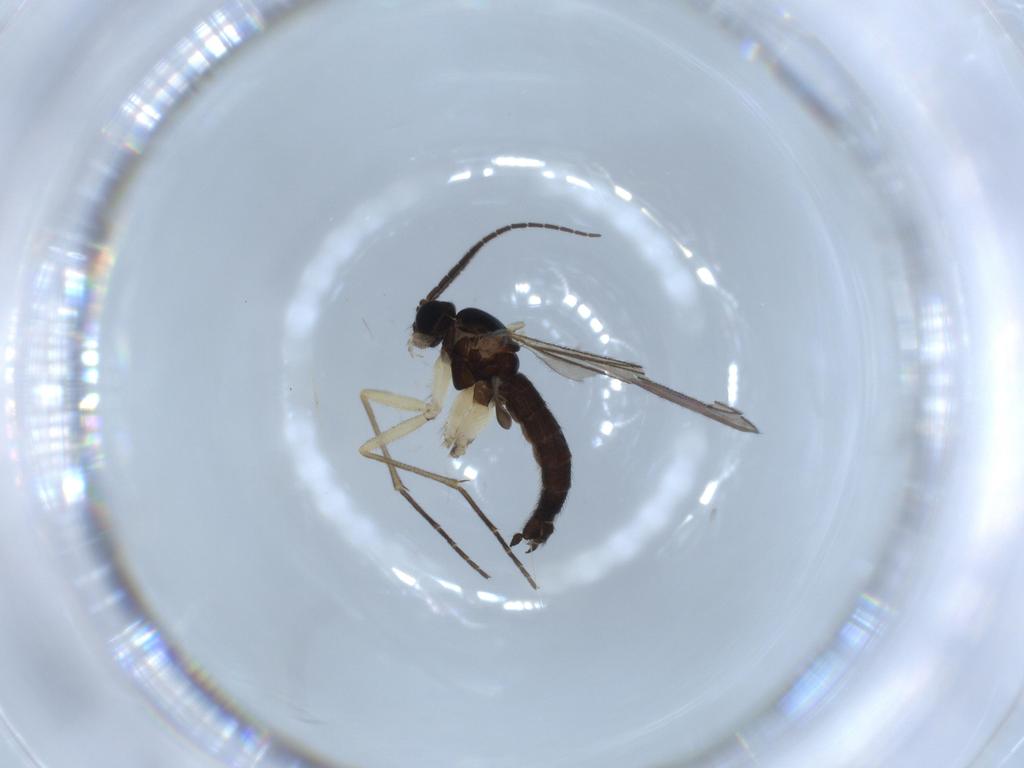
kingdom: Animalia
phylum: Arthropoda
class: Insecta
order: Diptera
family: Sciaridae
